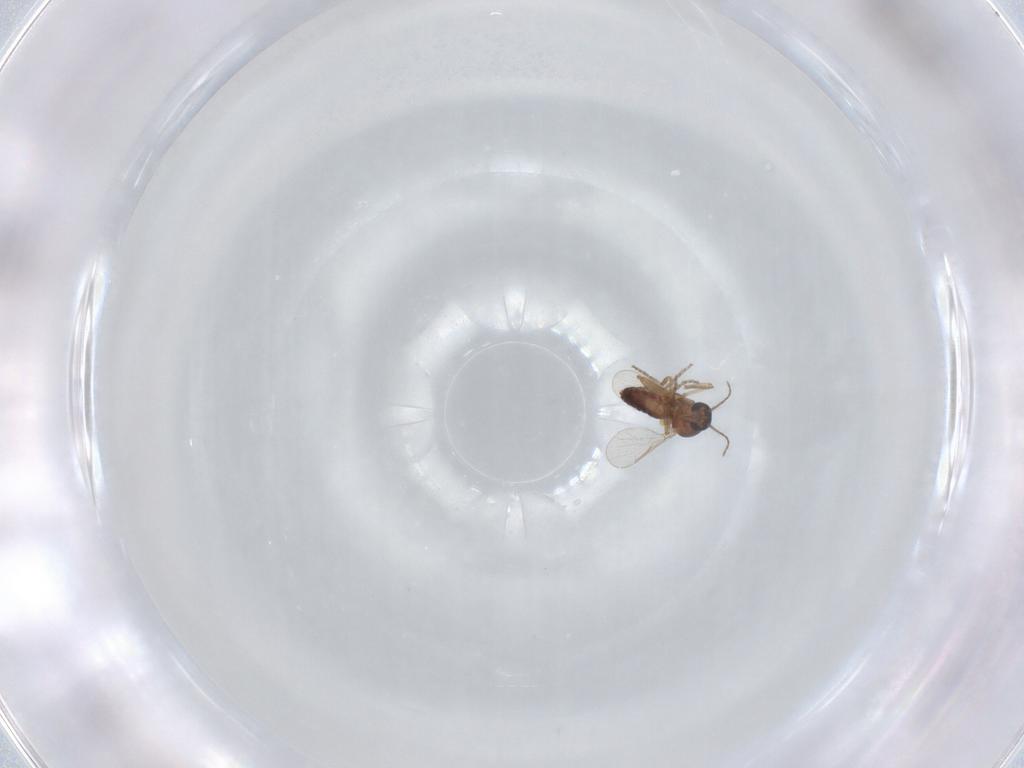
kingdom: Animalia
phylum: Arthropoda
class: Insecta
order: Diptera
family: Ceratopogonidae
